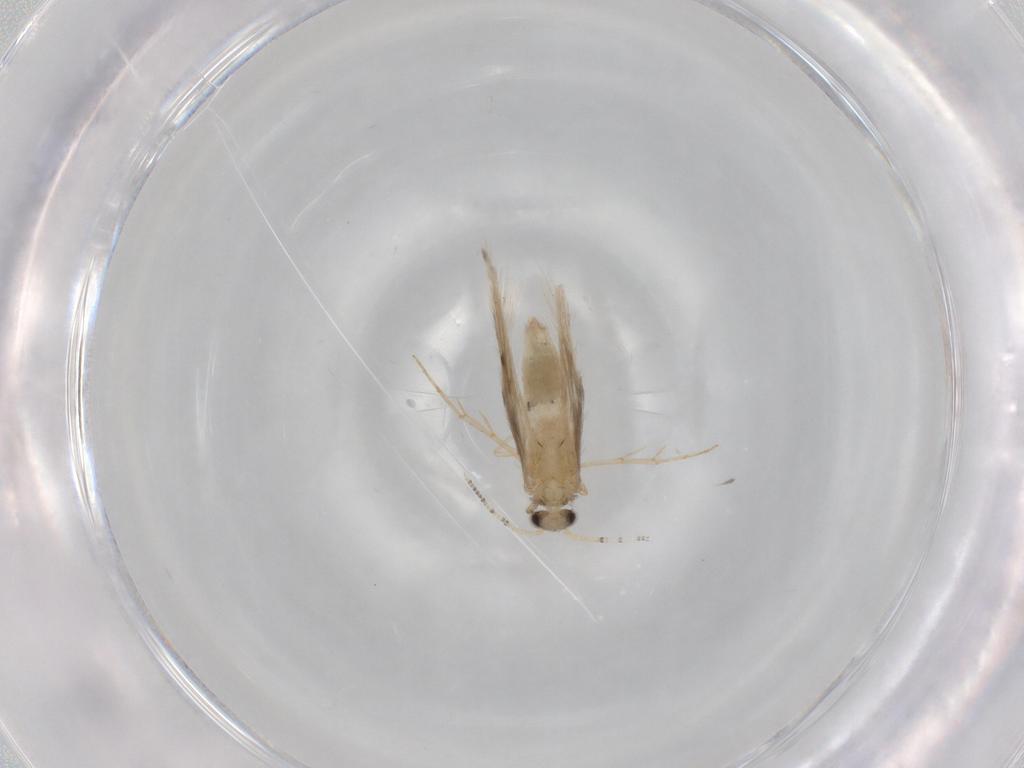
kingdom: Animalia
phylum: Arthropoda
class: Insecta
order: Trichoptera
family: Hydroptilidae
